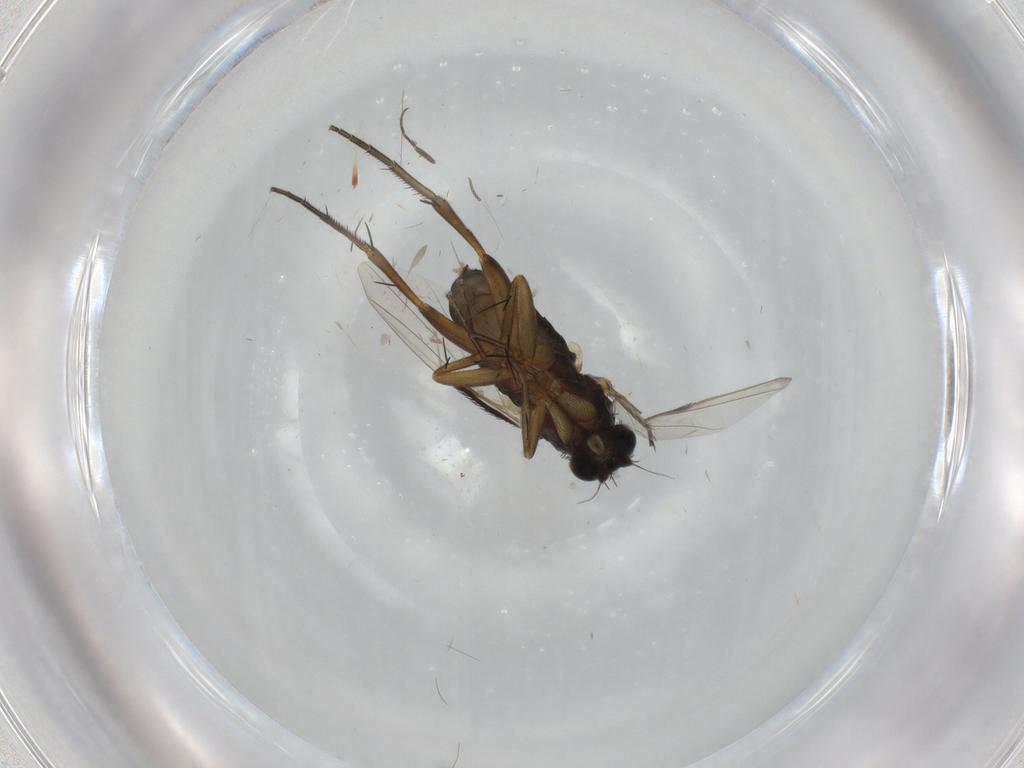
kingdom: Animalia
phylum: Arthropoda
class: Insecta
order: Diptera
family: Phoridae
